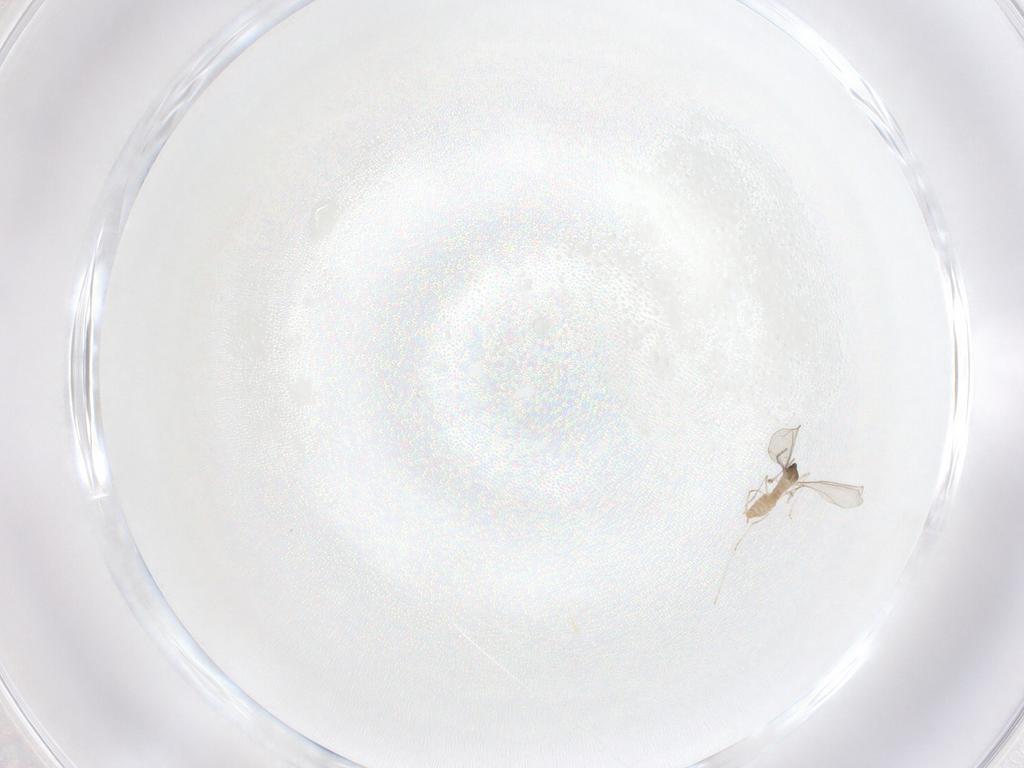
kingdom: Animalia
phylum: Arthropoda
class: Insecta
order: Diptera
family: Cecidomyiidae
